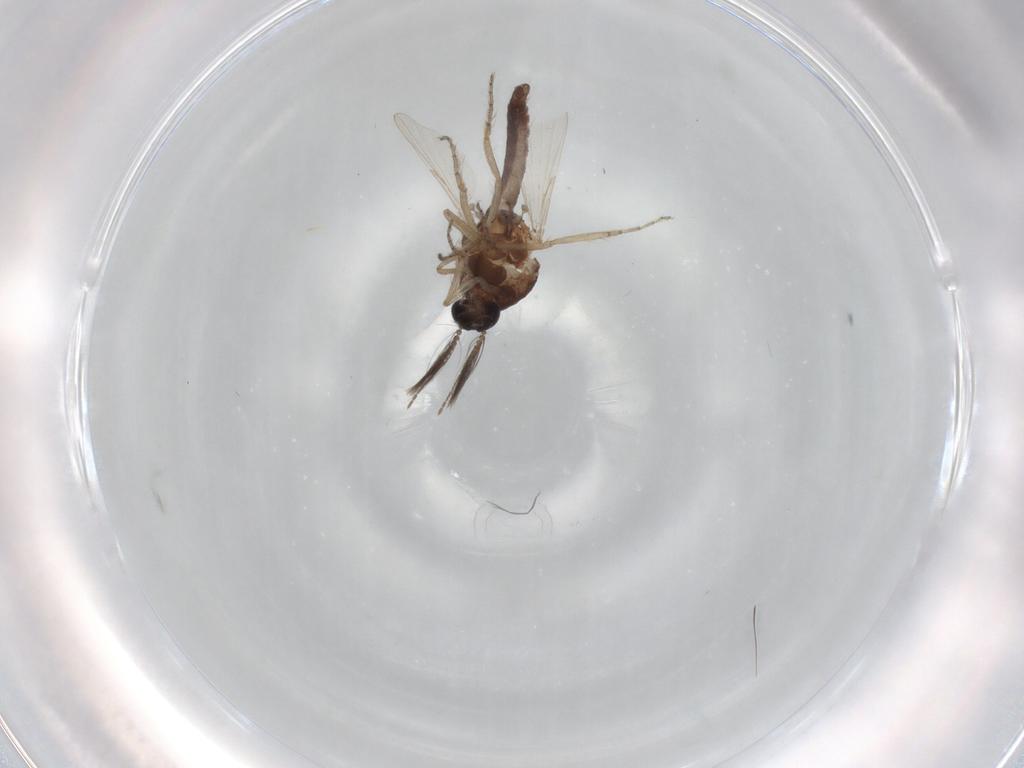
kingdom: Animalia
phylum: Arthropoda
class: Insecta
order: Diptera
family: Ceratopogonidae
